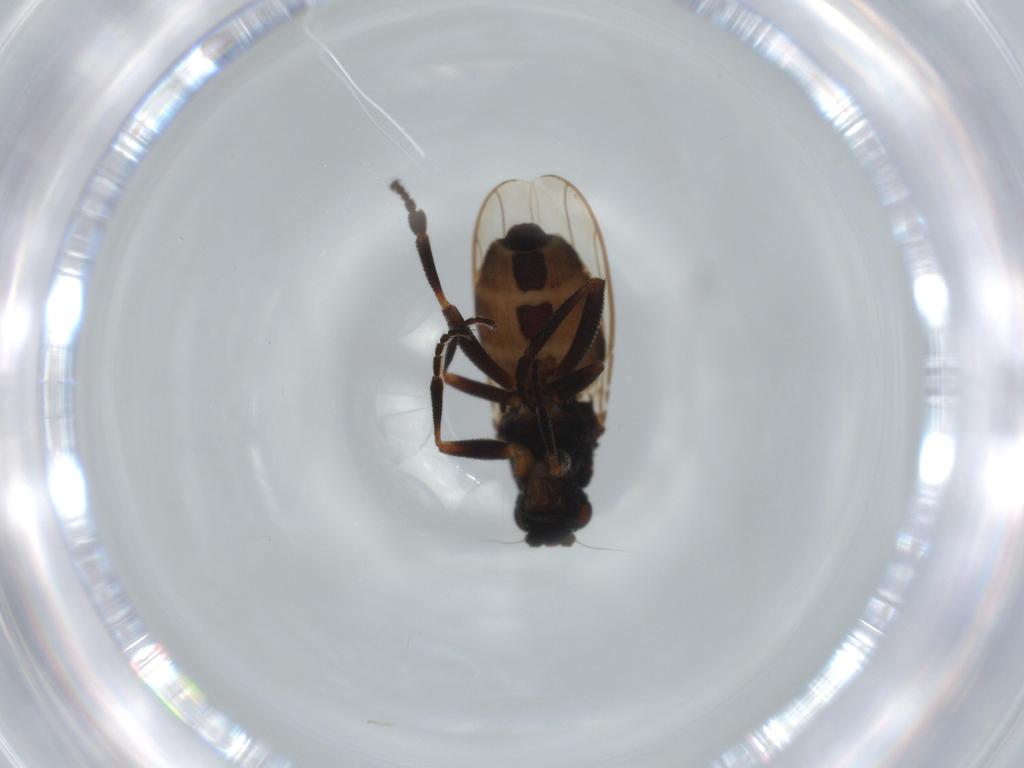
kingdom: Animalia
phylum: Arthropoda
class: Insecta
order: Diptera
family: Sphaeroceridae
